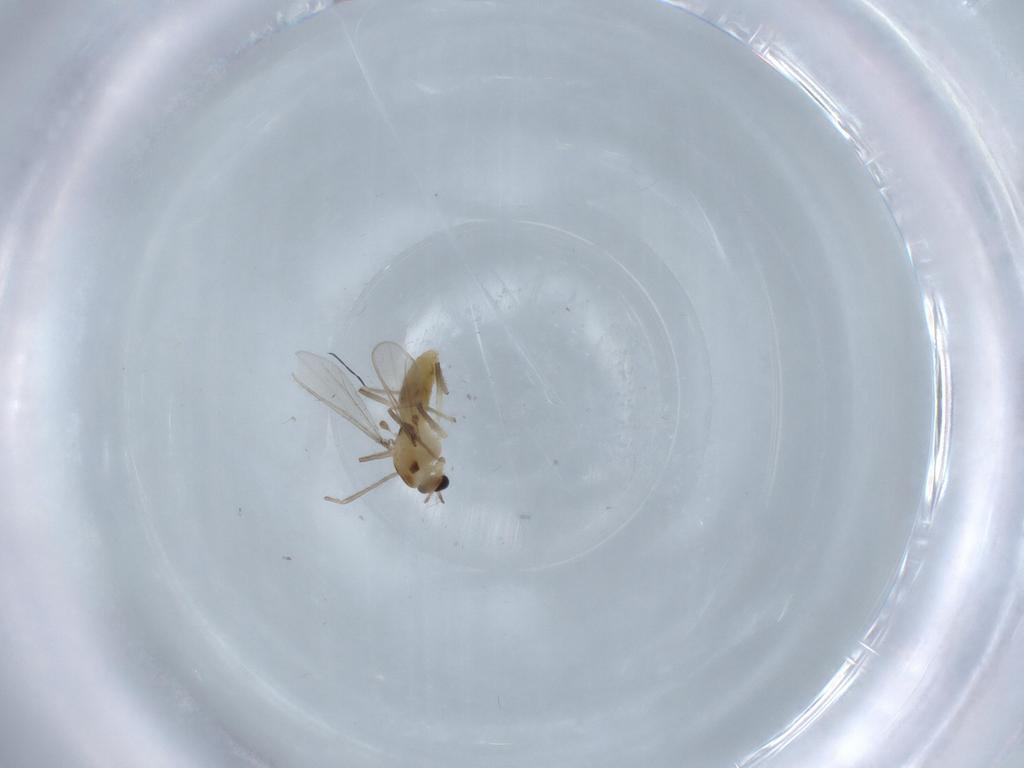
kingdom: Animalia
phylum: Arthropoda
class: Insecta
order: Diptera
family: Chironomidae
